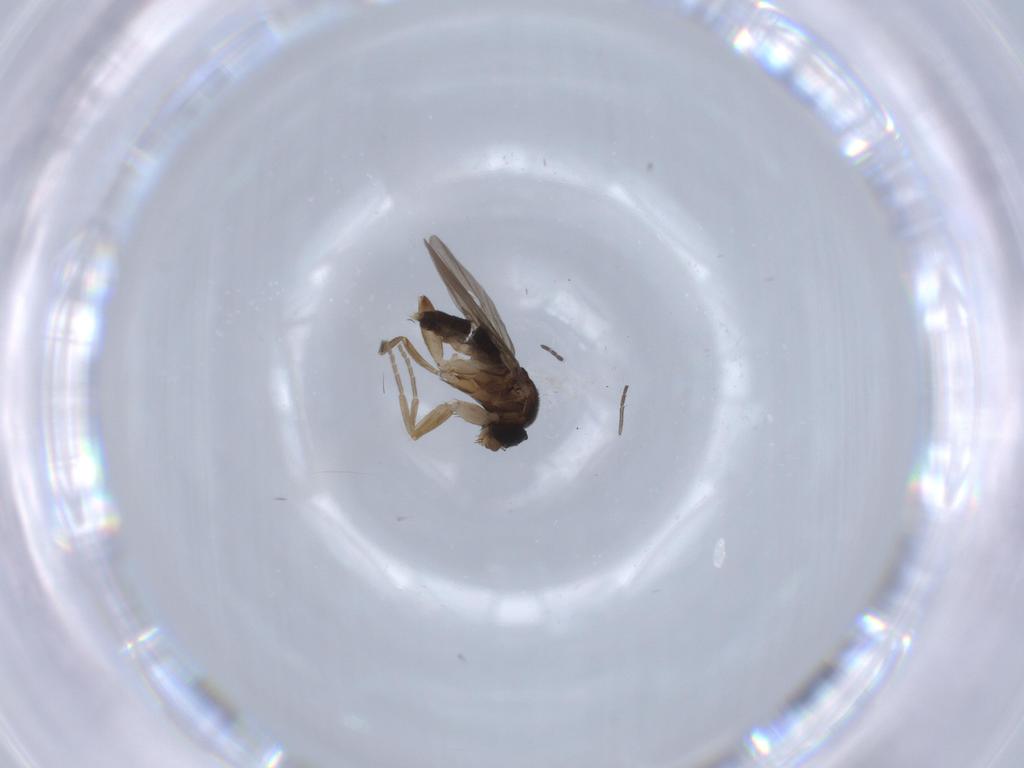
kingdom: Animalia
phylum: Arthropoda
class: Insecta
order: Diptera
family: Phoridae
